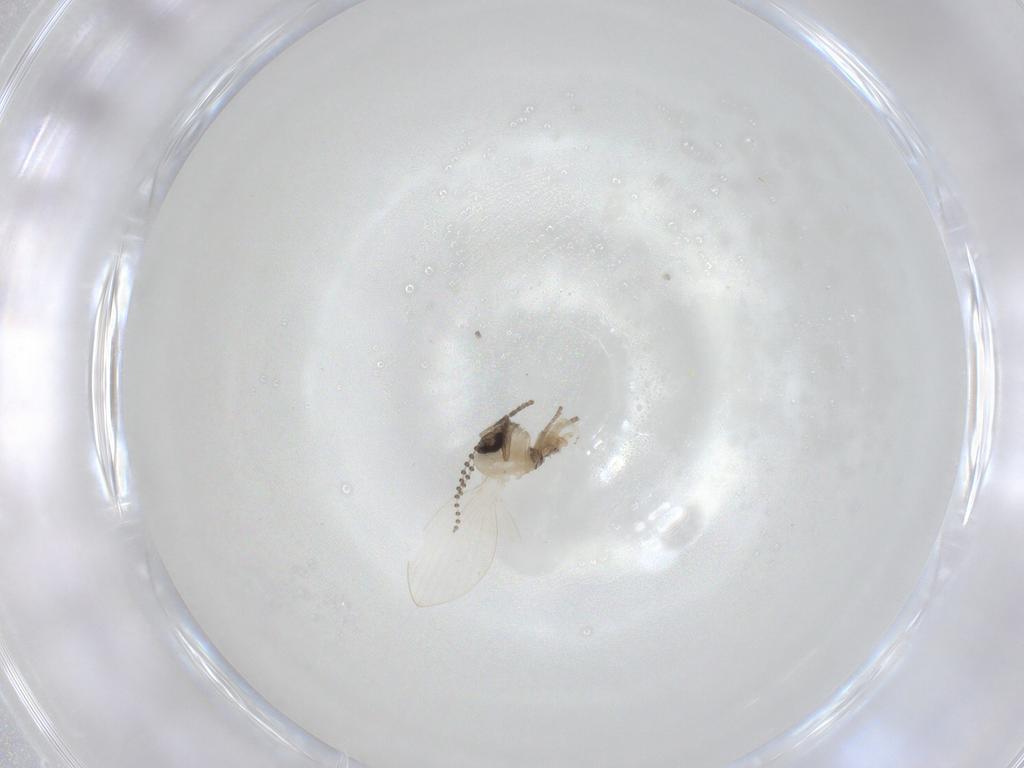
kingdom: Animalia
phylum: Arthropoda
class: Insecta
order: Diptera
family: Psychodidae
